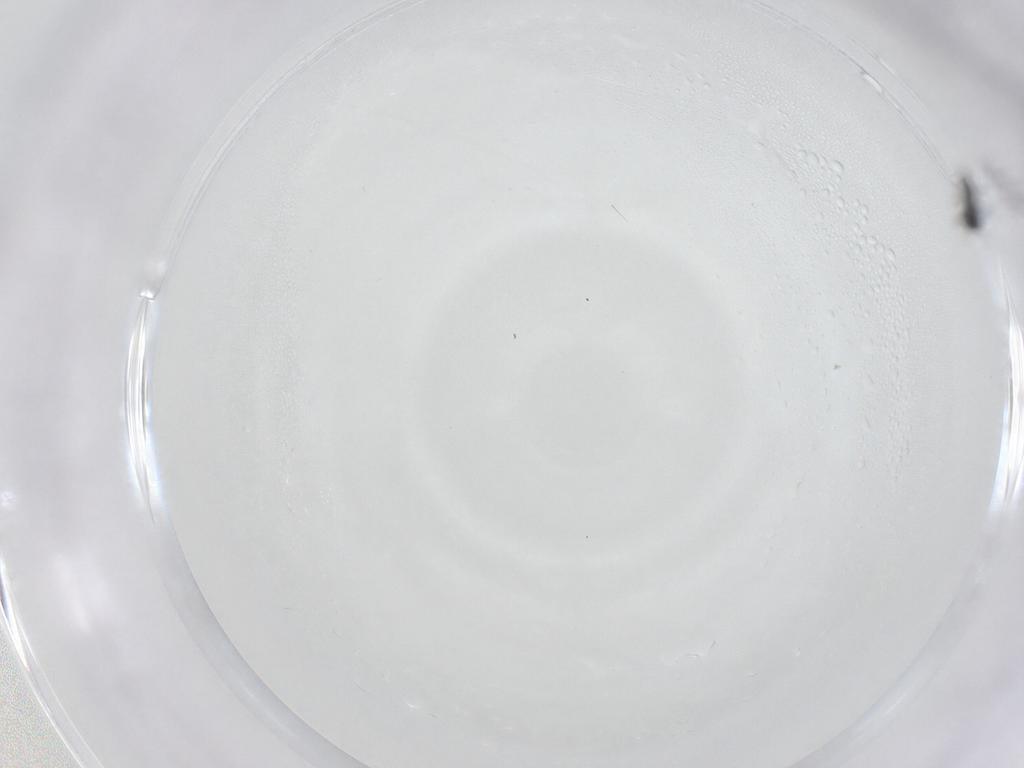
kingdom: Animalia
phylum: Arthropoda
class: Insecta
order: Hymenoptera
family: Scelionidae
